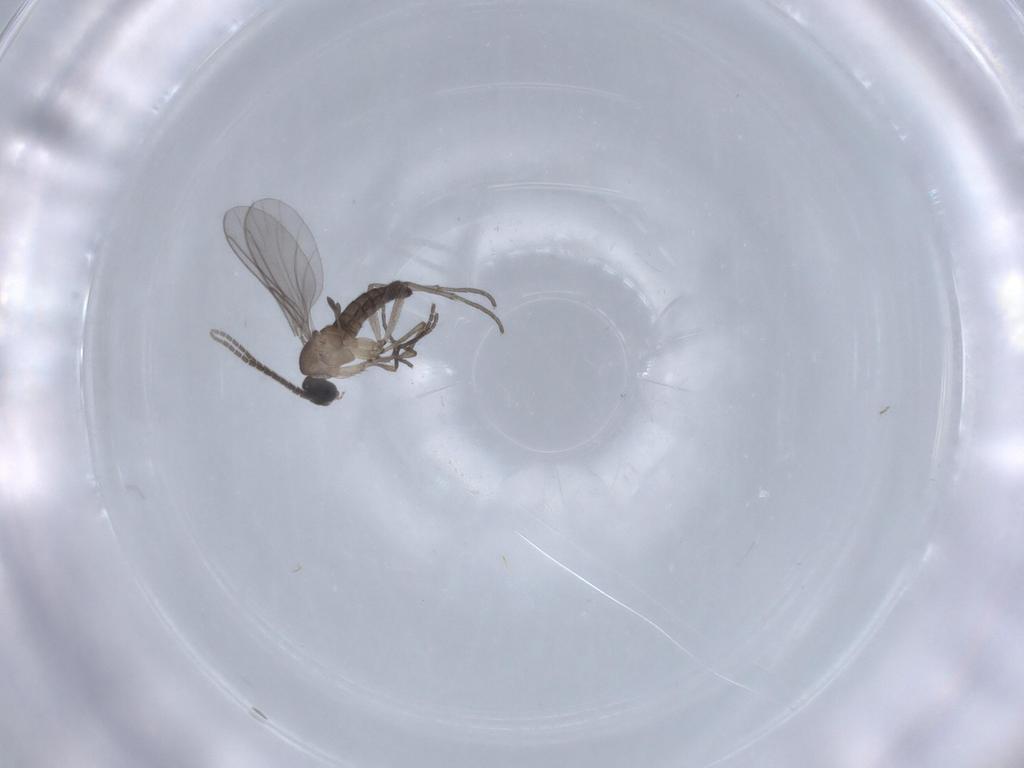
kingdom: Animalia
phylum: Arthropoda
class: Insecta
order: Diptera
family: Sciaridae
